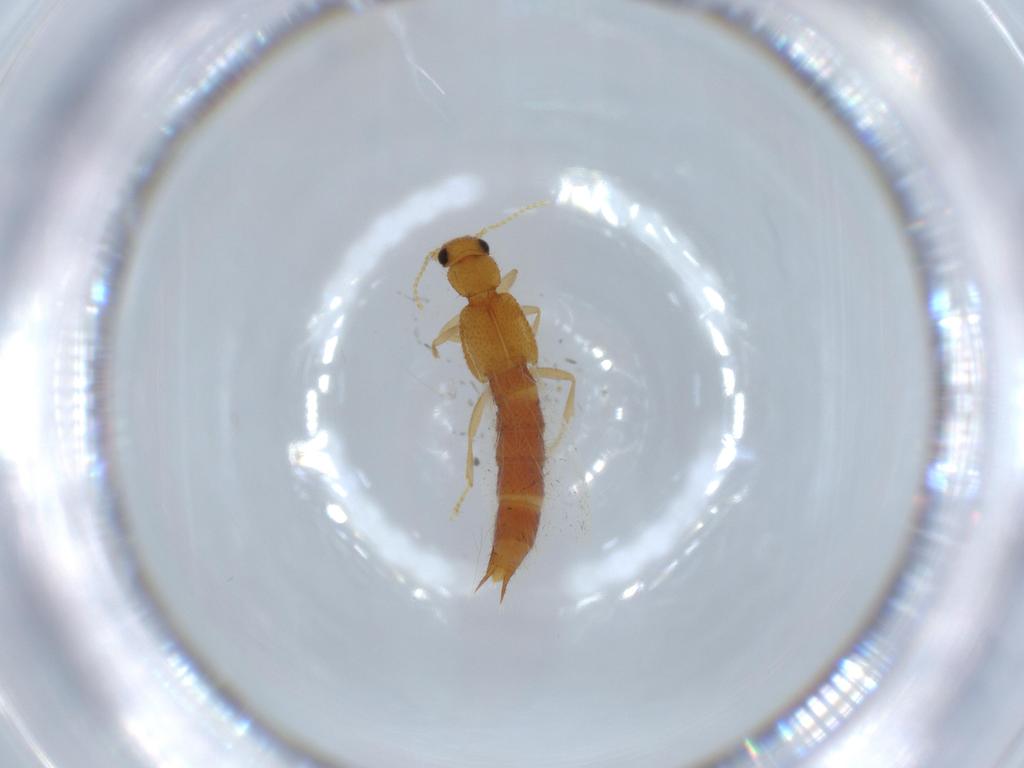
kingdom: Animalia
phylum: Arthropoda
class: Insecta
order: Coleoptera
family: Staphylinidae
